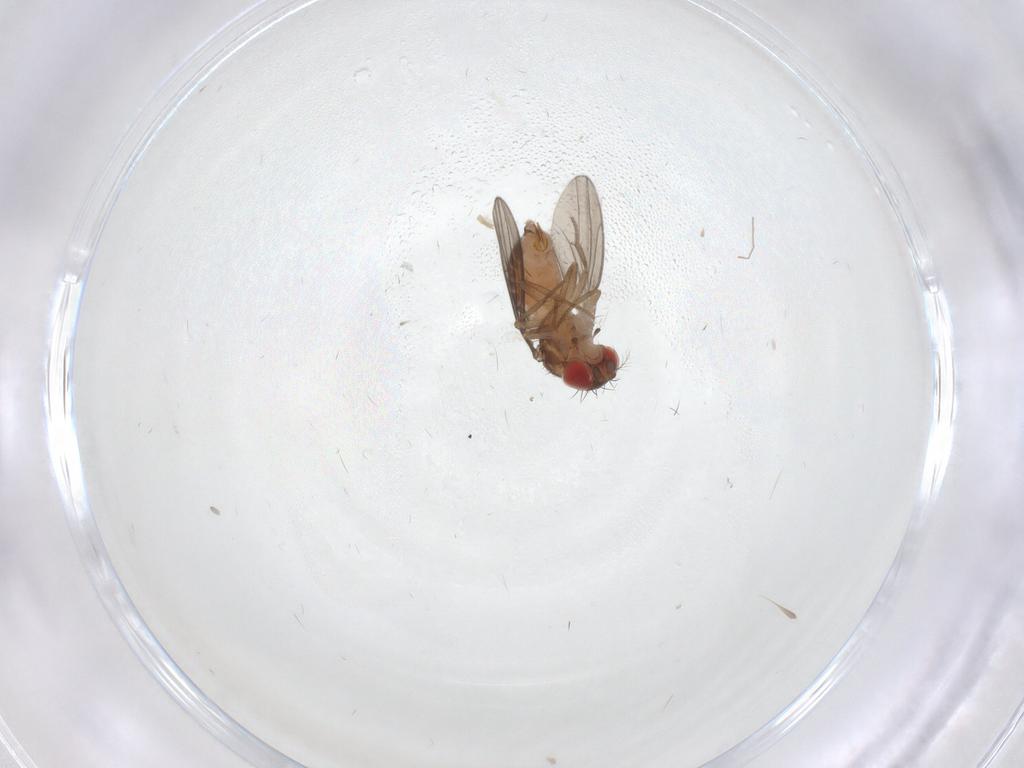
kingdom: Animalia
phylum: Arthropoda
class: Insecta
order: Diptera
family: Drosophilidae
